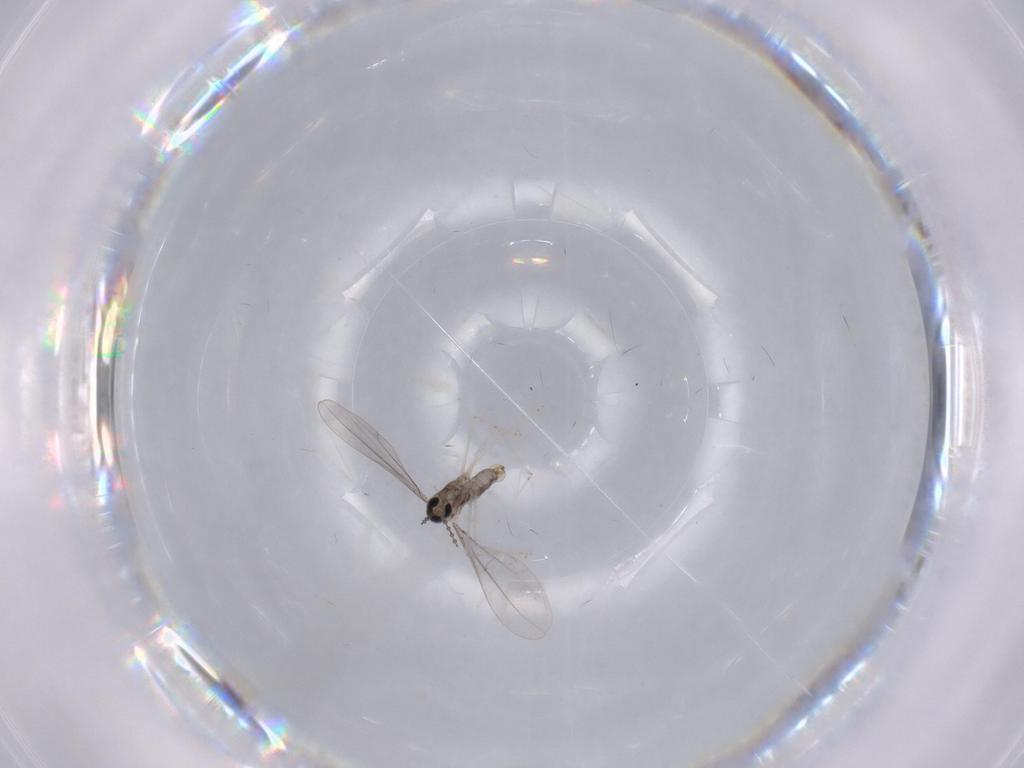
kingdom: Animalia
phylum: Arthropoda
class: Insecta
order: Diptera
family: Cecidomyiidae
